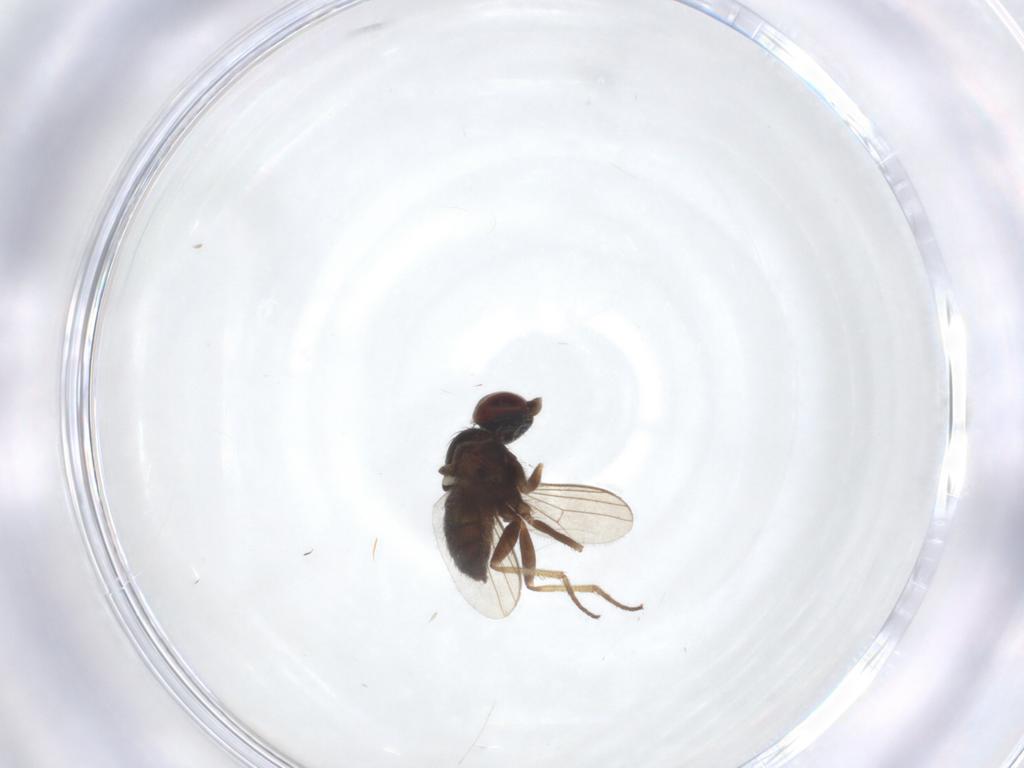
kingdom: Animalia
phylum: Arthropoda
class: Insecta
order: Diptera
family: Dolichopodidae
